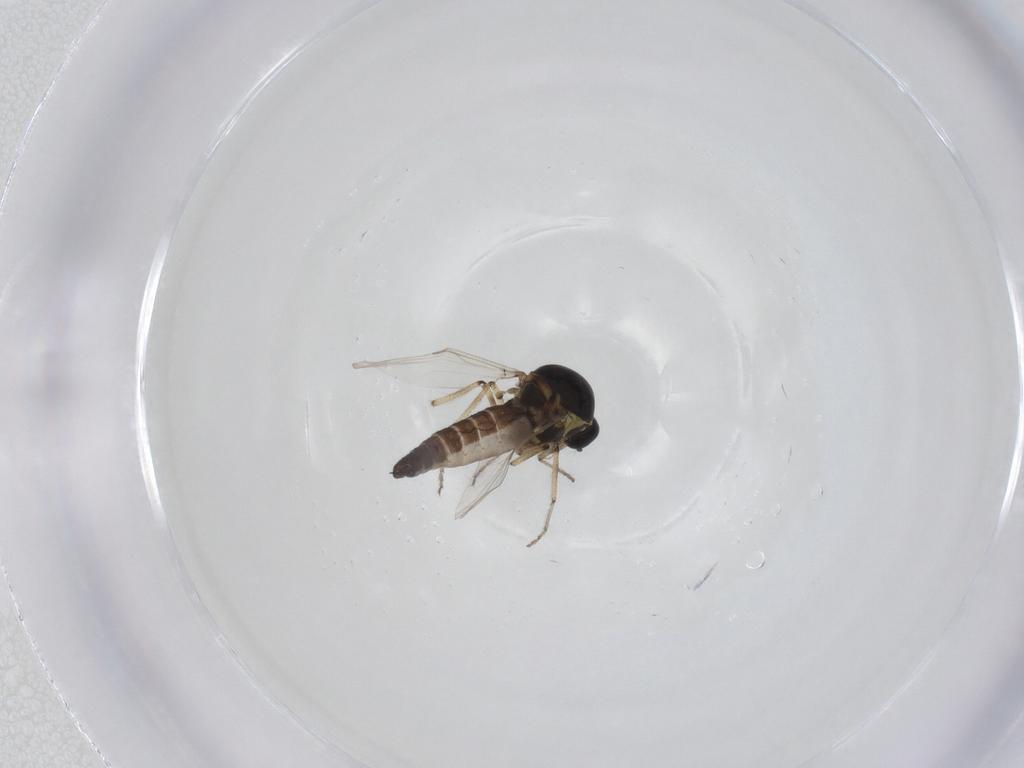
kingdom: Animalia
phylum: Arthropoda
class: Insecta
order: Diptera
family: Ceratopogonidae
